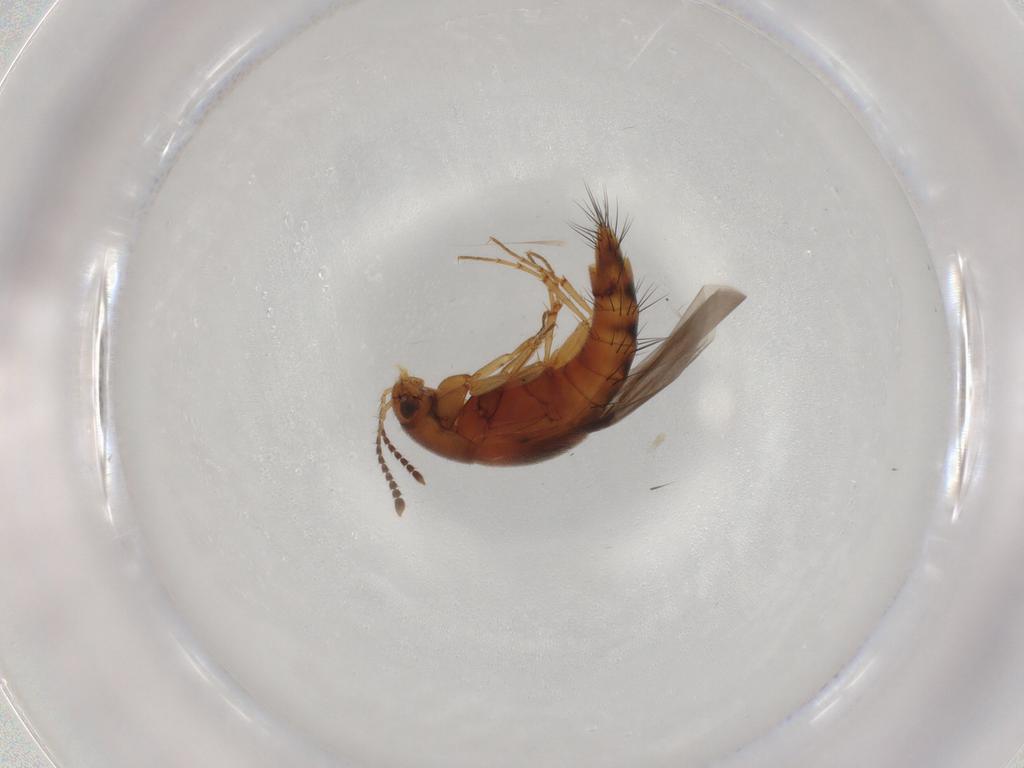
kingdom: Animalia
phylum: Arthropoda
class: Insecta
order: Coleoptera
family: Staphylinidae
